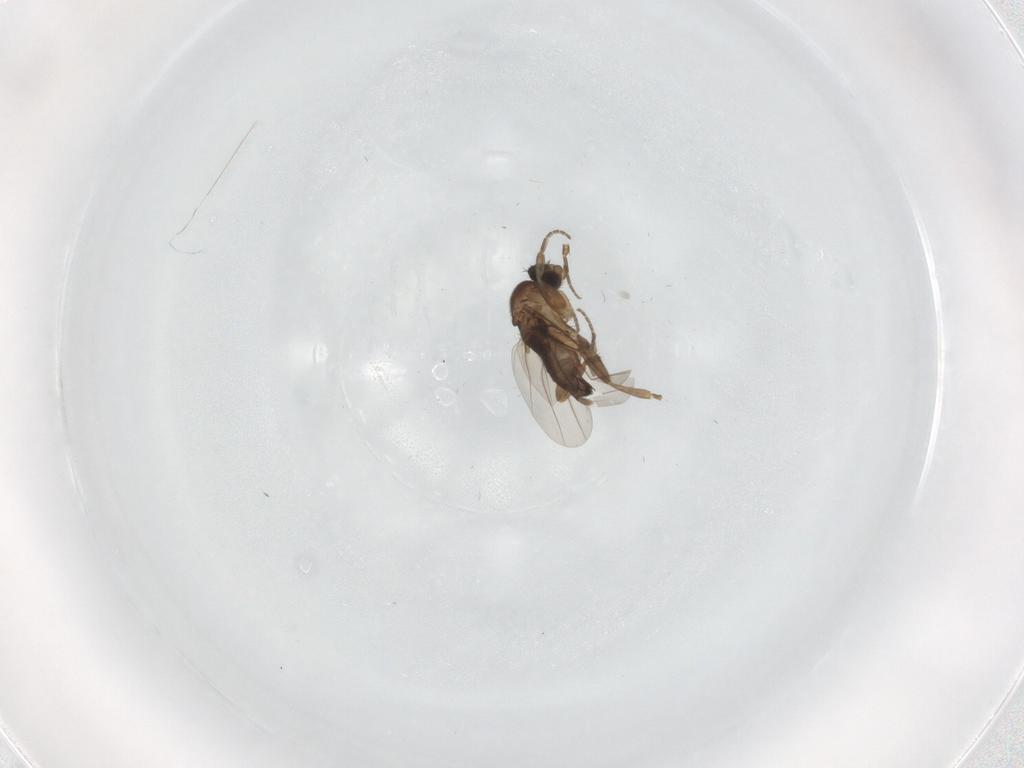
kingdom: Animalia
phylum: Arthropoda
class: Insecta
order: Diptera
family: Phoridae
